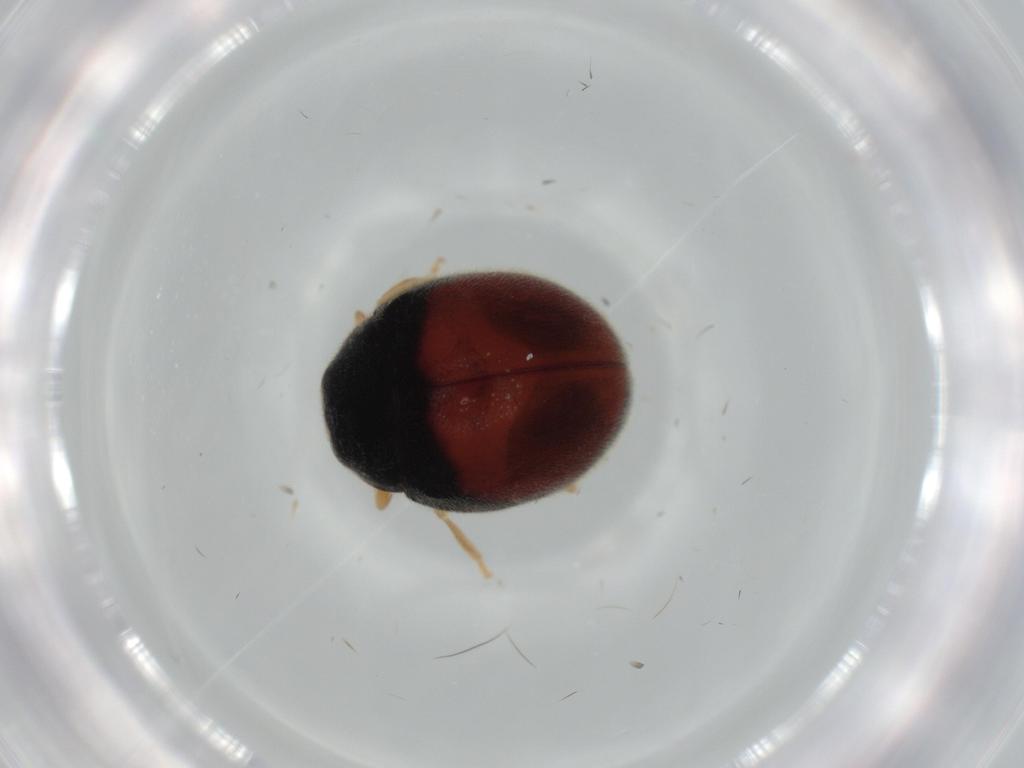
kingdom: Animalia
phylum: Arthropoda
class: Insecta
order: Coleoptera
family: Coccinellidae
